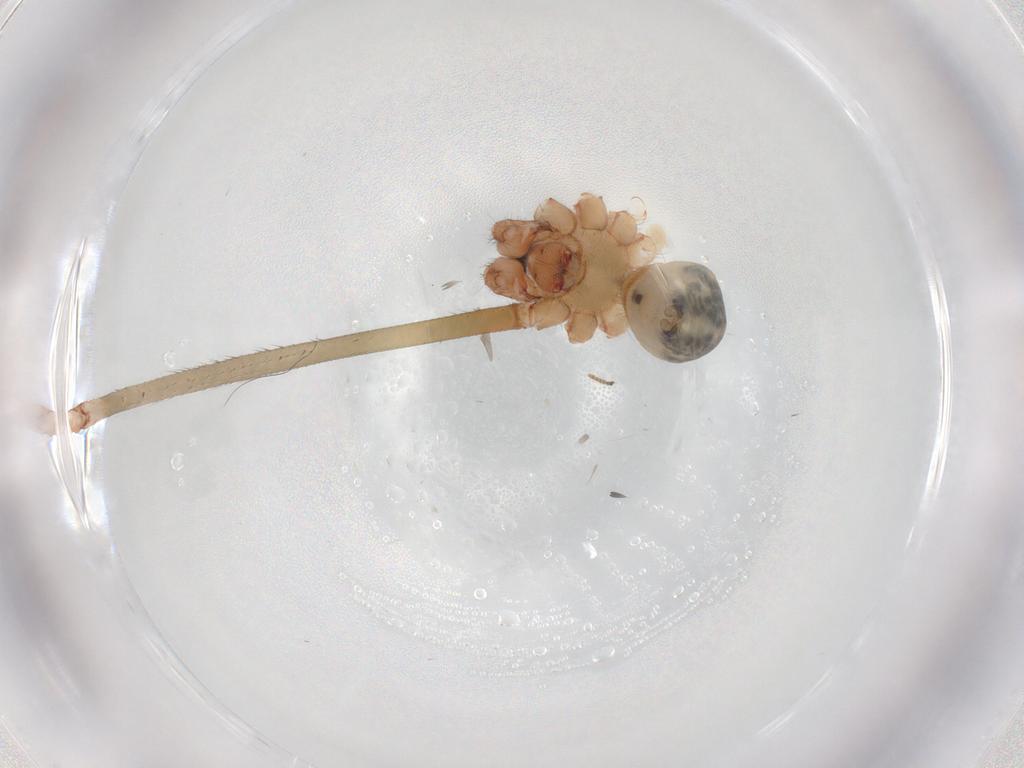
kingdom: Animalia
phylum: Arthropoda
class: Arachnida
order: Araneae
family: Pholcidae
